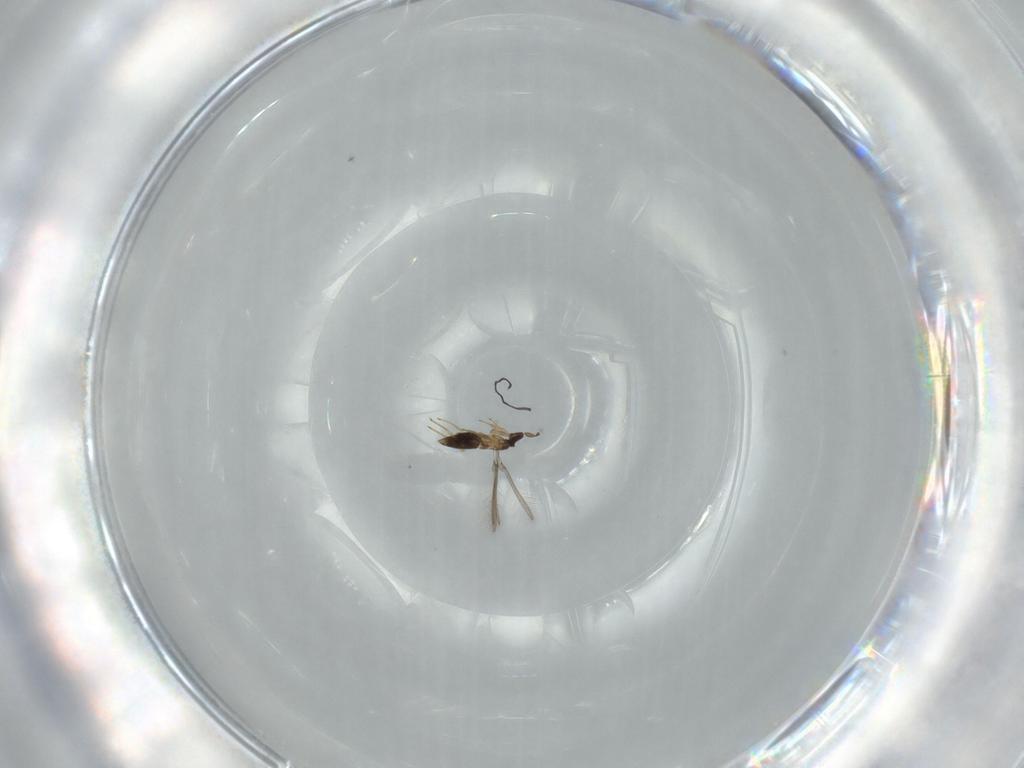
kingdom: Animalia
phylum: Arthropoda
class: Insecta
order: Hymenoptera
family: Mymaridae
